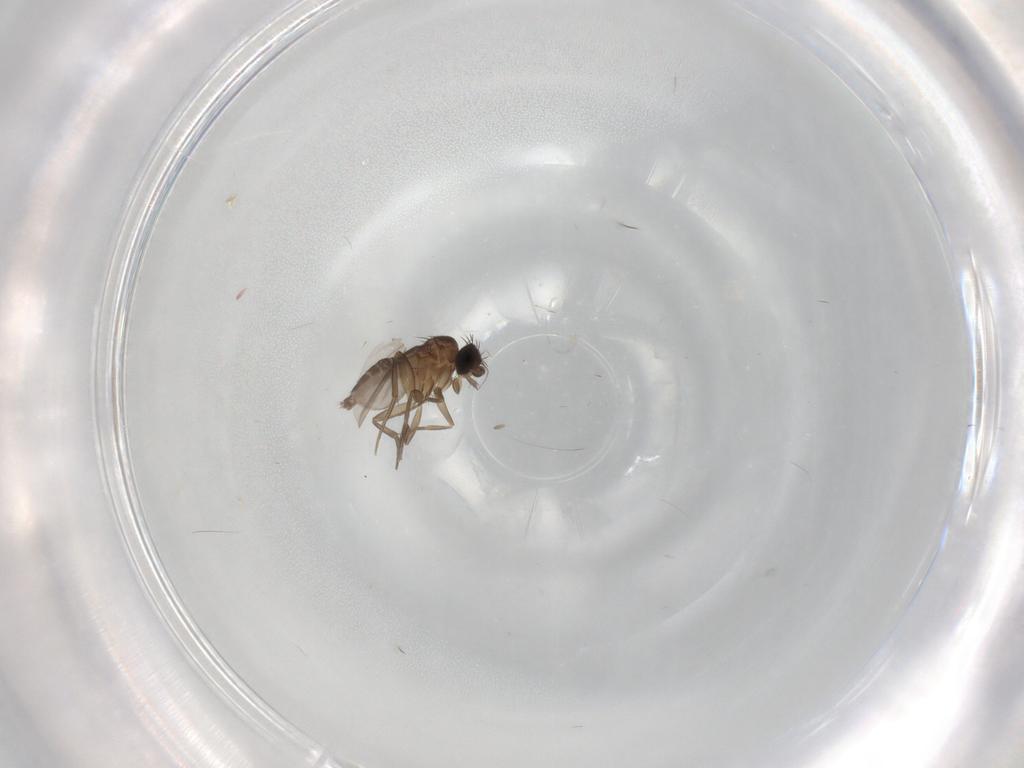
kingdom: Animalia
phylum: Arthropoda
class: Insecta
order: Diptera
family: Phoridae
